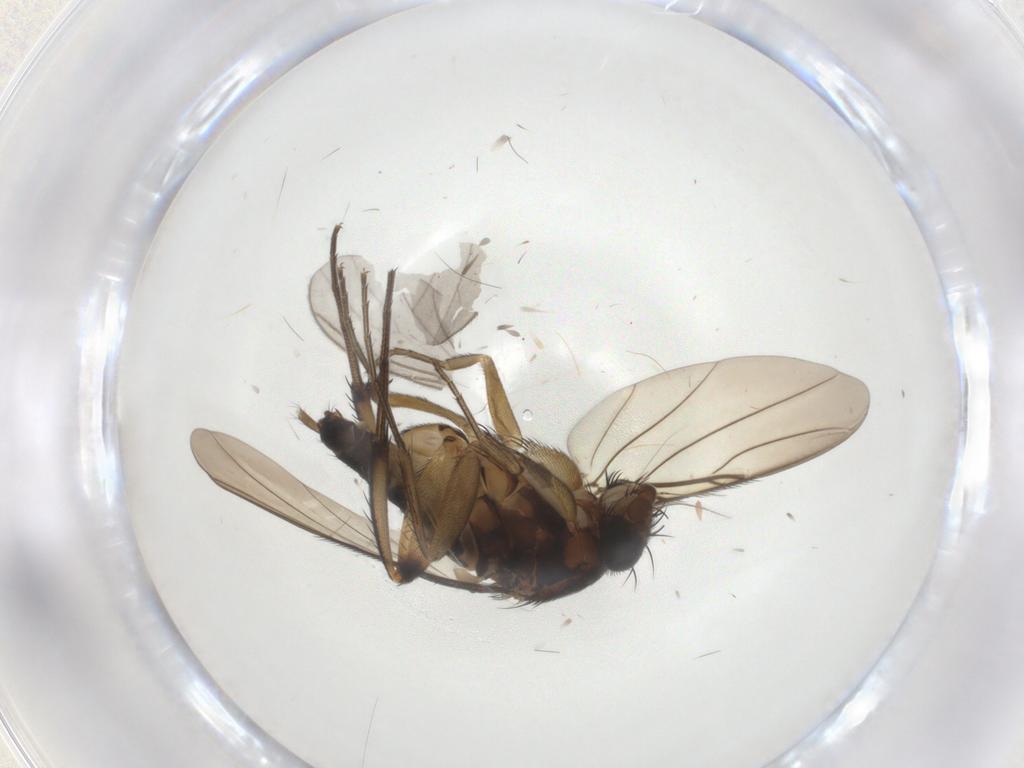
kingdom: Animalia
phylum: Arthropoda
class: Insecta
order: Diptera
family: Phoridae
